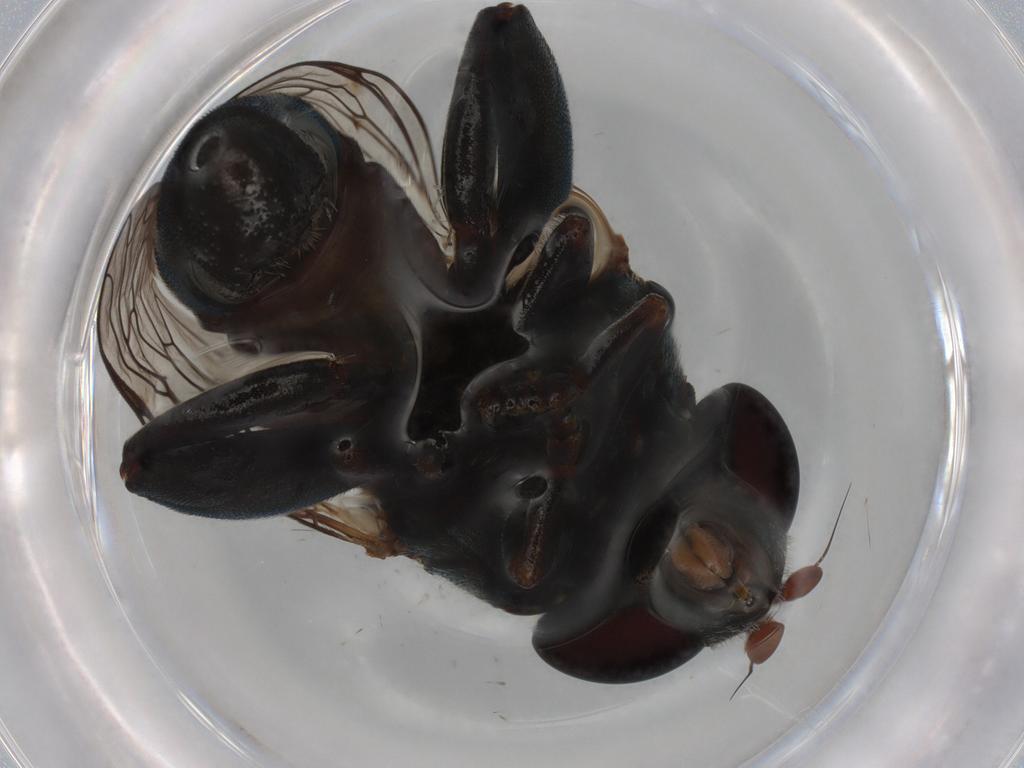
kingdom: Animalia
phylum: Arthropoda
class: Insecta
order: Diptera
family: Syrphidae
